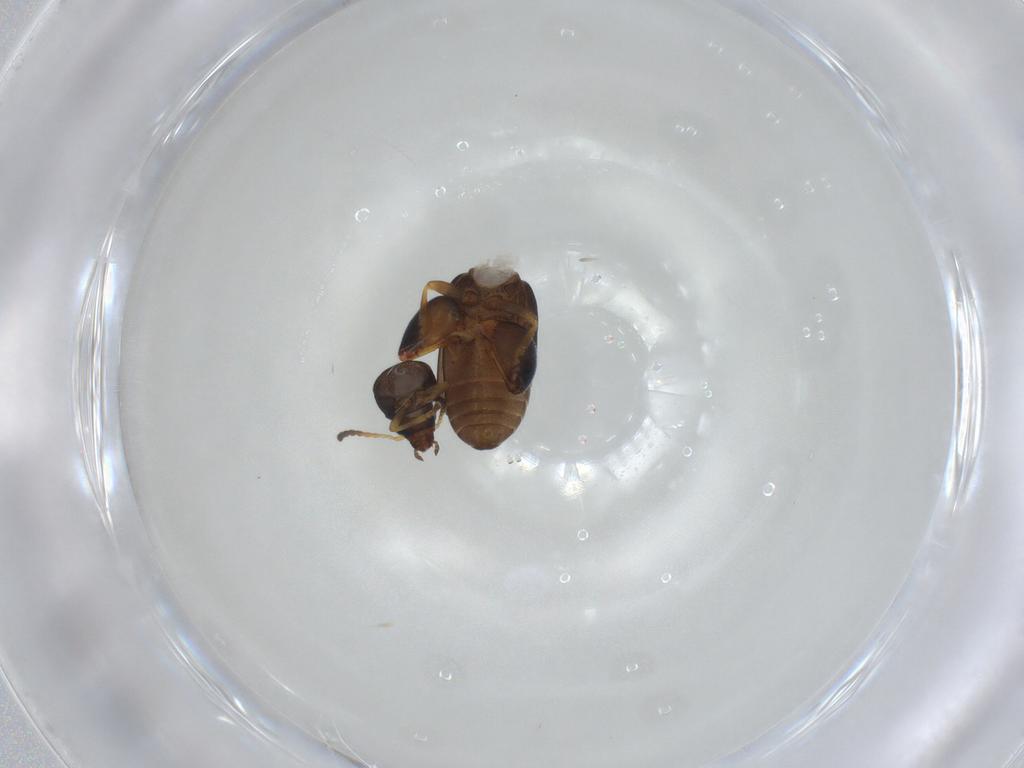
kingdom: Animalia
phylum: Arthropoda
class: Insecta
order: Coleoptera
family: Chrysomelidae
